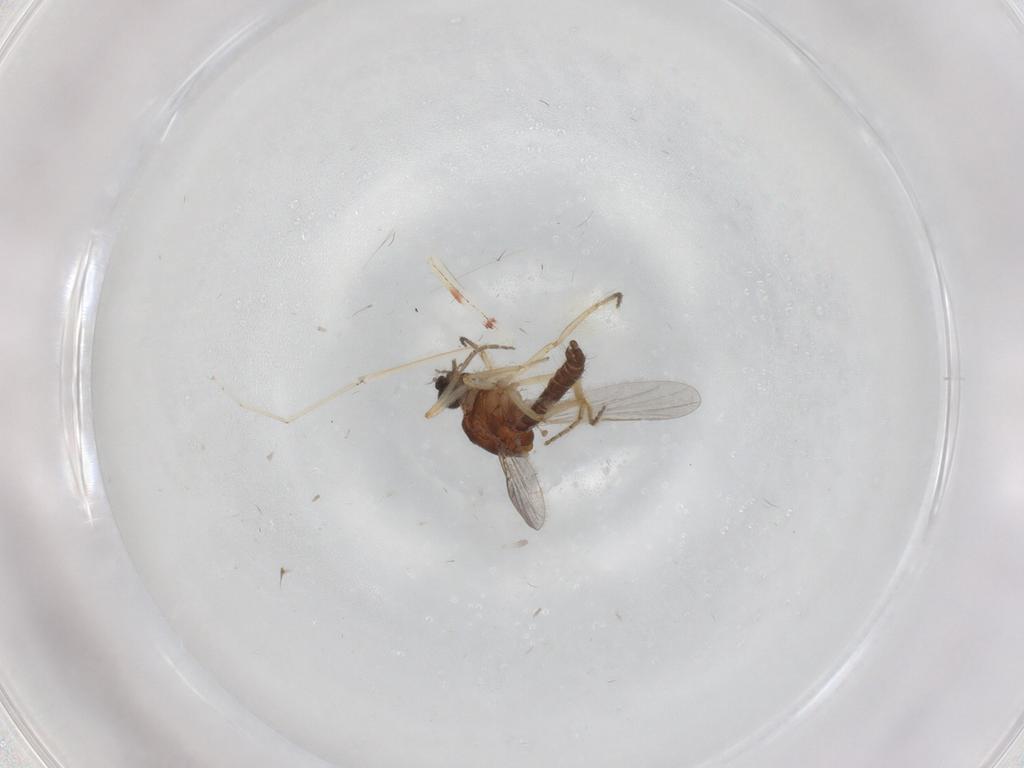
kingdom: Animalia
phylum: Arthropoda
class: Insecta
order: Diptera
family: Ceratopogonidae
